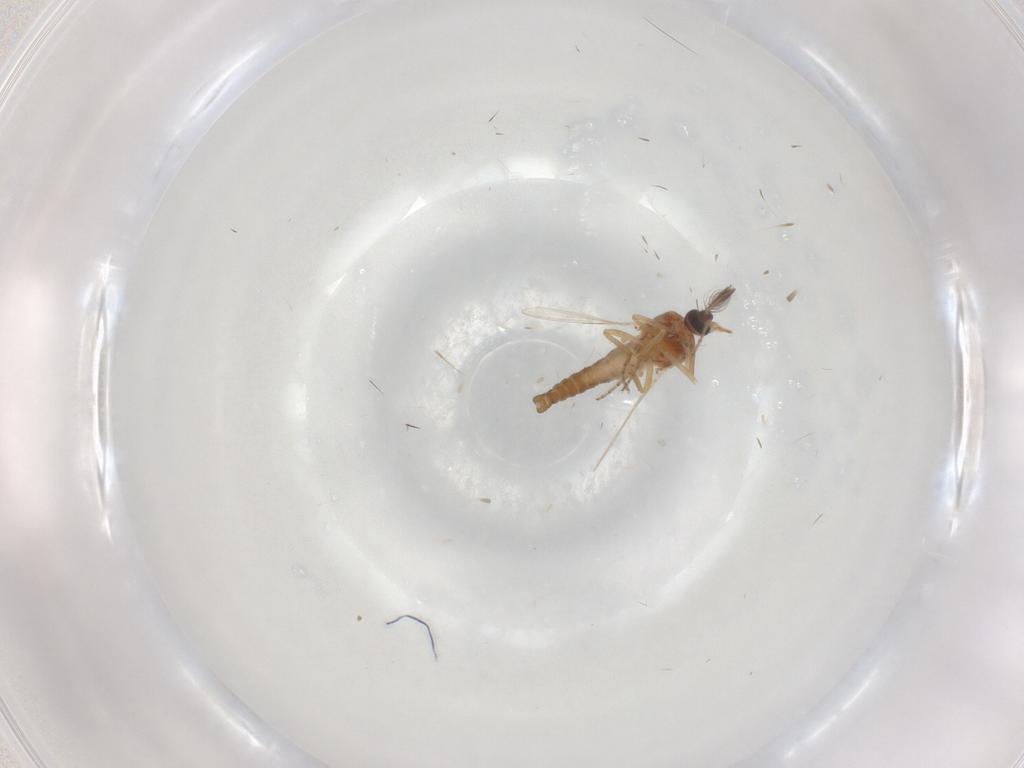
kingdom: Animalia
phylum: Arthropoda
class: Insecta
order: Diptera
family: Ceratopogonidae
